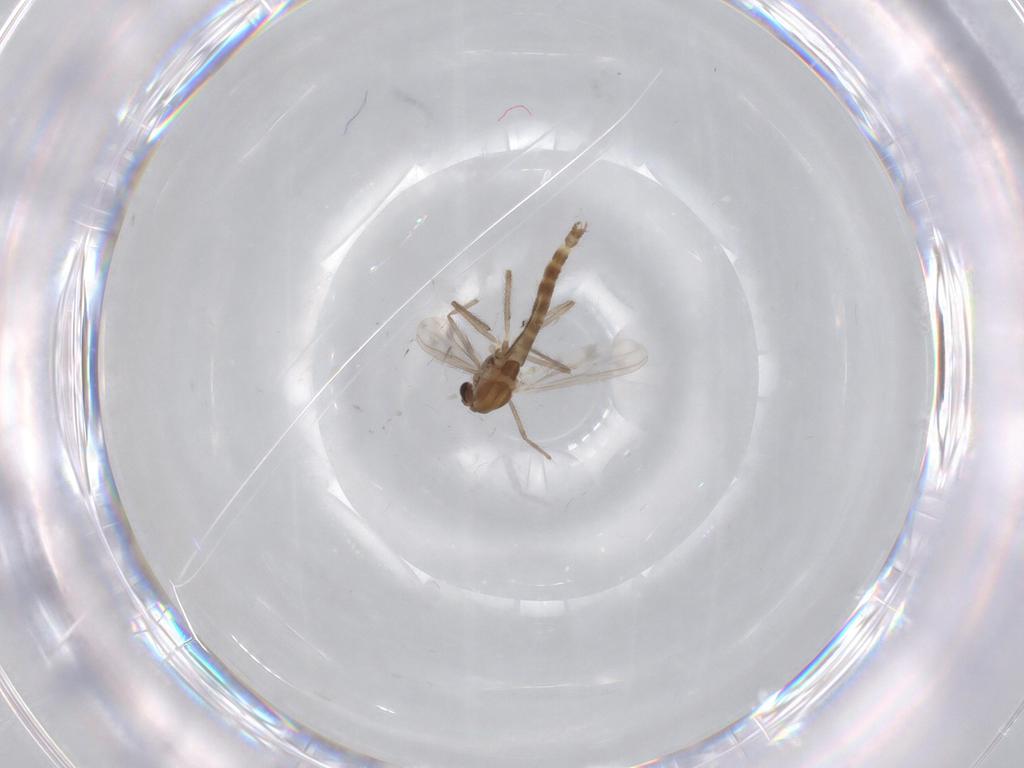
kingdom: Animalia
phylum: Arthropoda
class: Insecta
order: Diptera
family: Chironomidae
